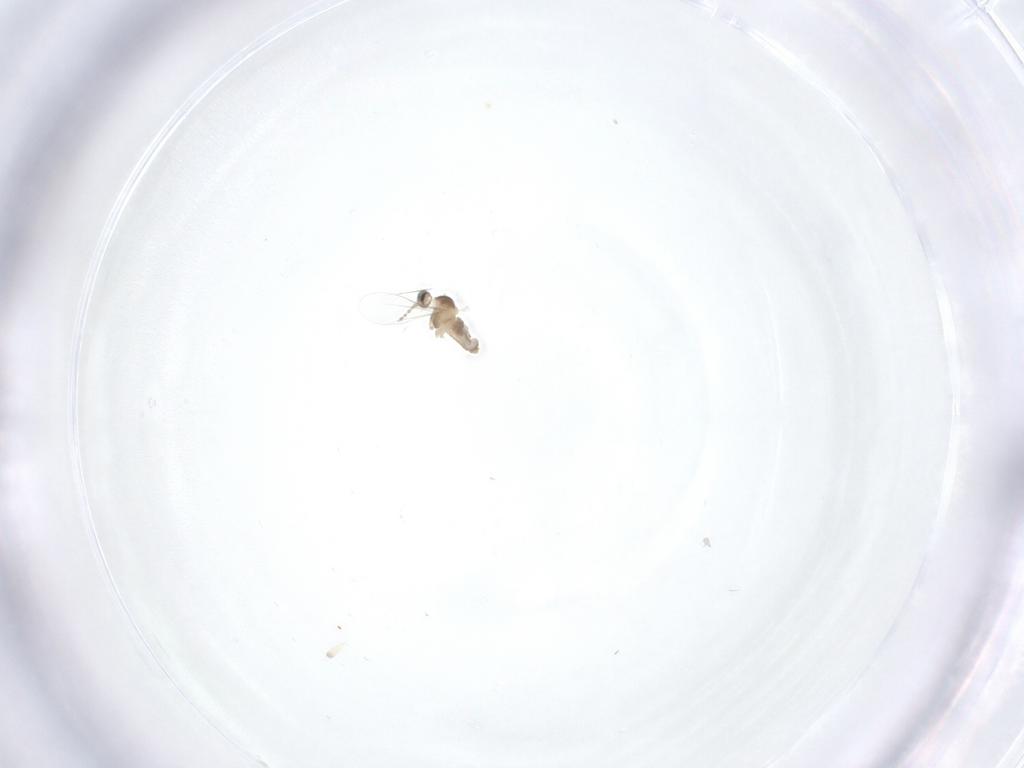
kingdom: Animalia
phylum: Arthropoda
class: Insecta
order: Diptera
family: Cecidomyiidae
